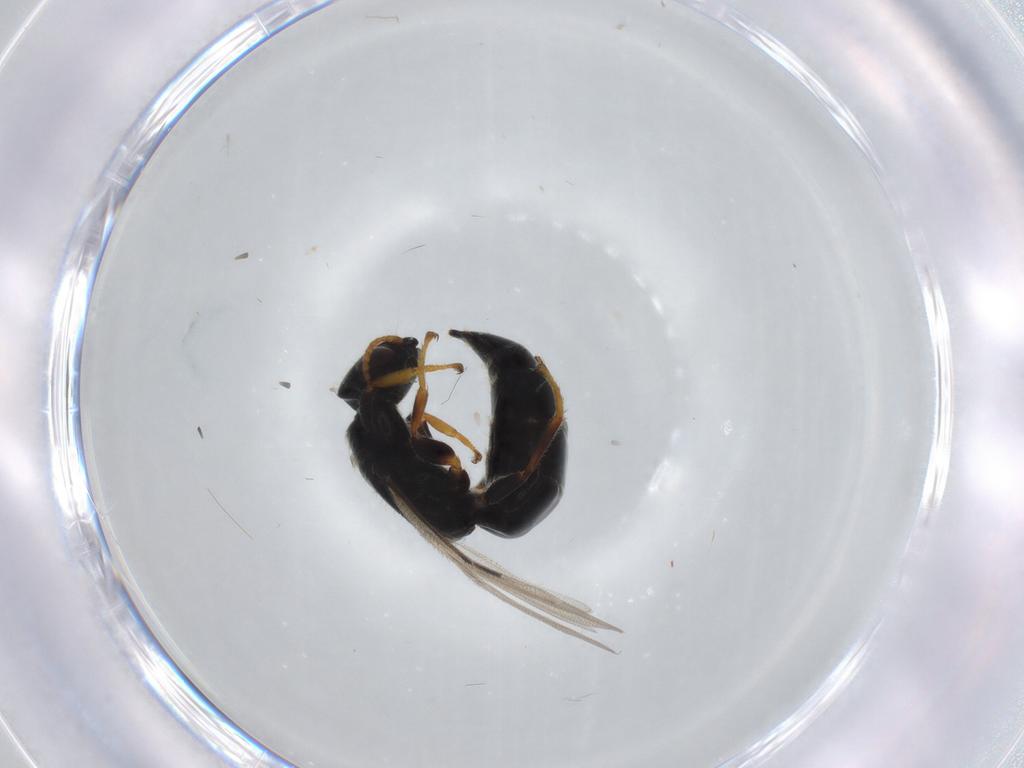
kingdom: Animalia
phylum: Arthropoda
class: Insecta
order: Hymenoptera
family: Bethylidae
